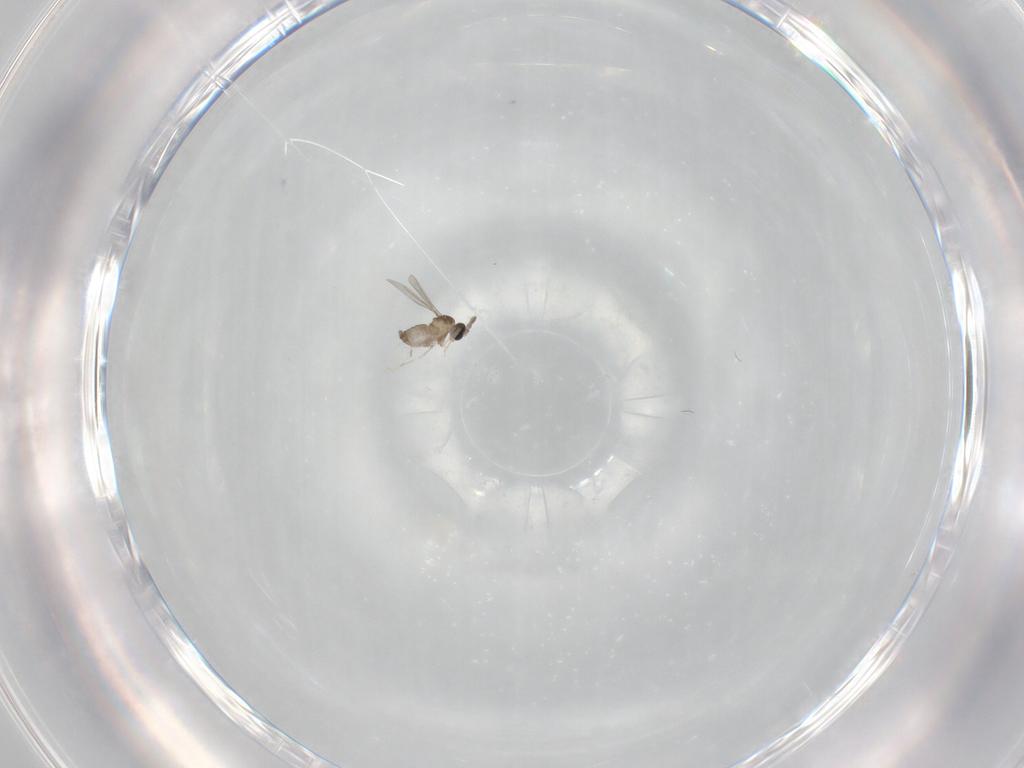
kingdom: Animalia
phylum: Arthropoda
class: Insecta
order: Diptera
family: Cecidomyiidae
